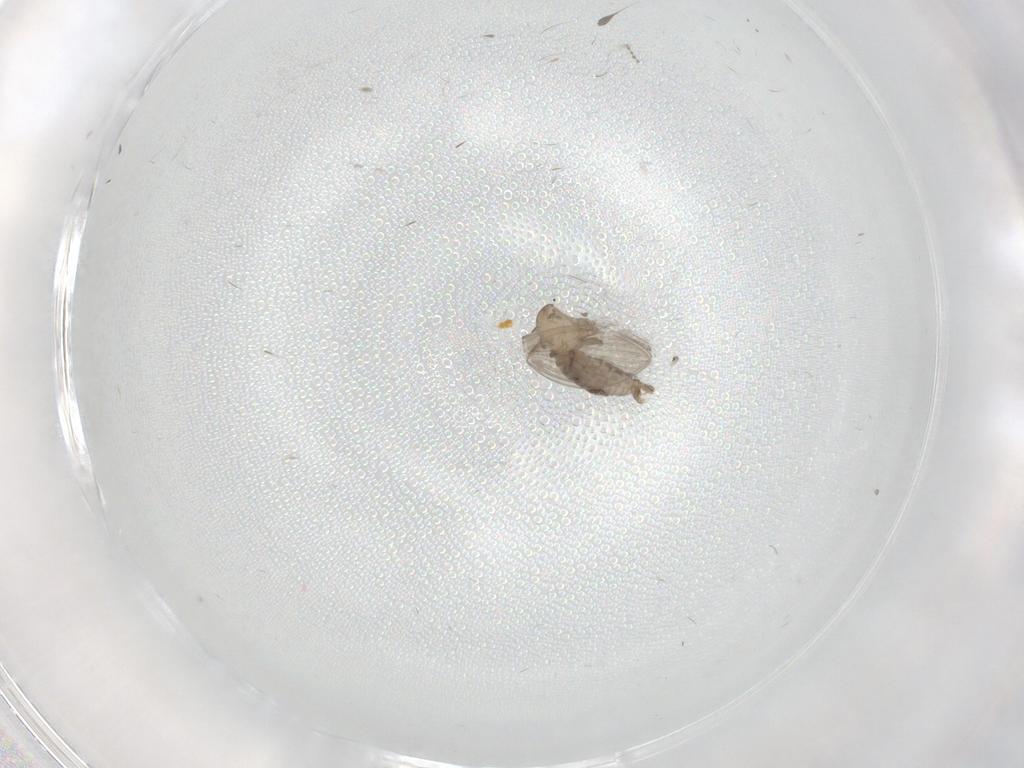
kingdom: Animalia
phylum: Arthropoda
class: Insecta
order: Diptera
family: Psychodidae
